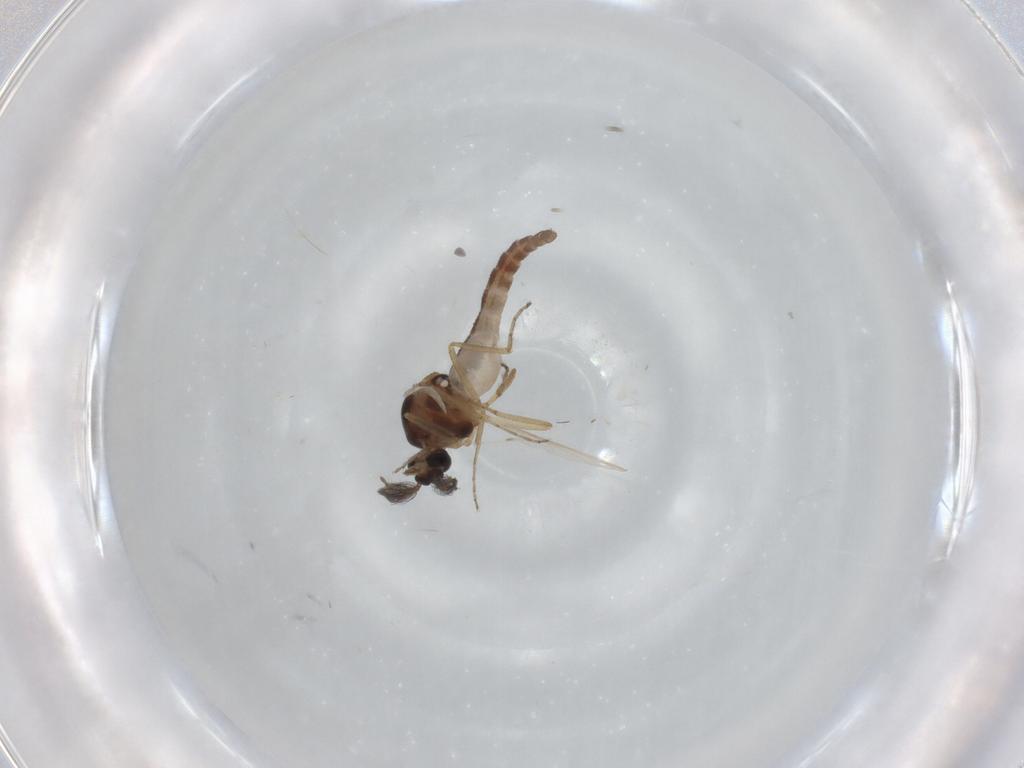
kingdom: Animalia
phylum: Arthropoda
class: Insecta
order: Diptera
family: Ceratopogonidae
